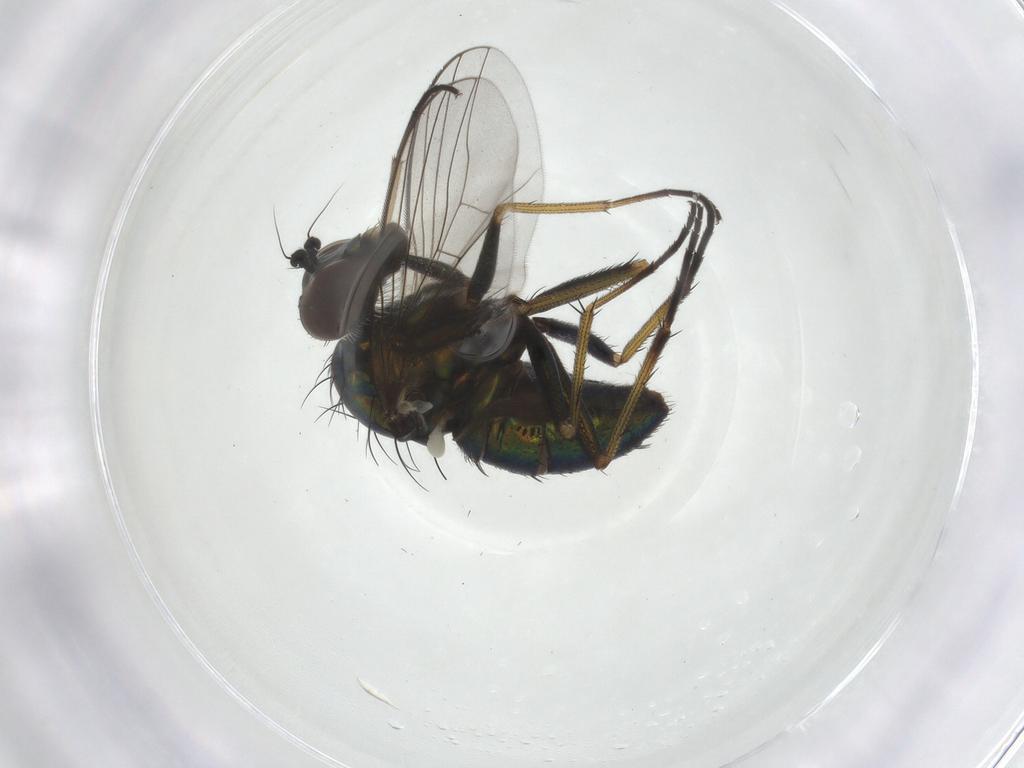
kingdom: Animalia
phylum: Arthropoda
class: Insecta
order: Diptera
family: Dolichopodidae
